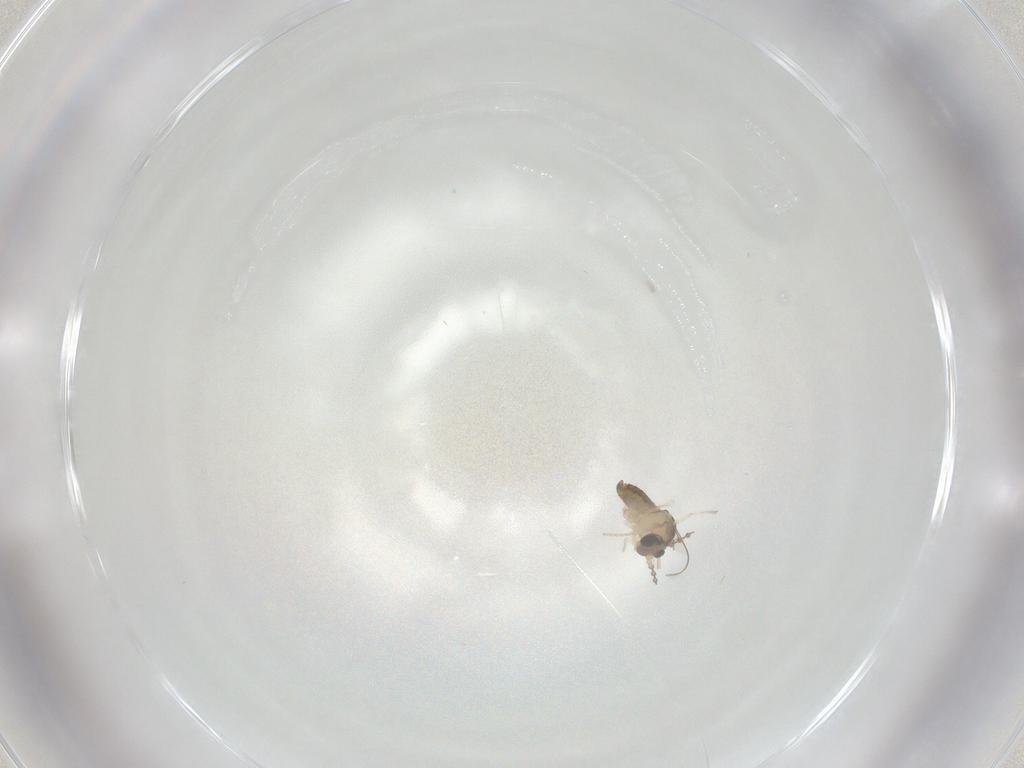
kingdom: Animalia
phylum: Arthropoda
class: Insecta
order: Diptera
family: Cecidomyiidae
